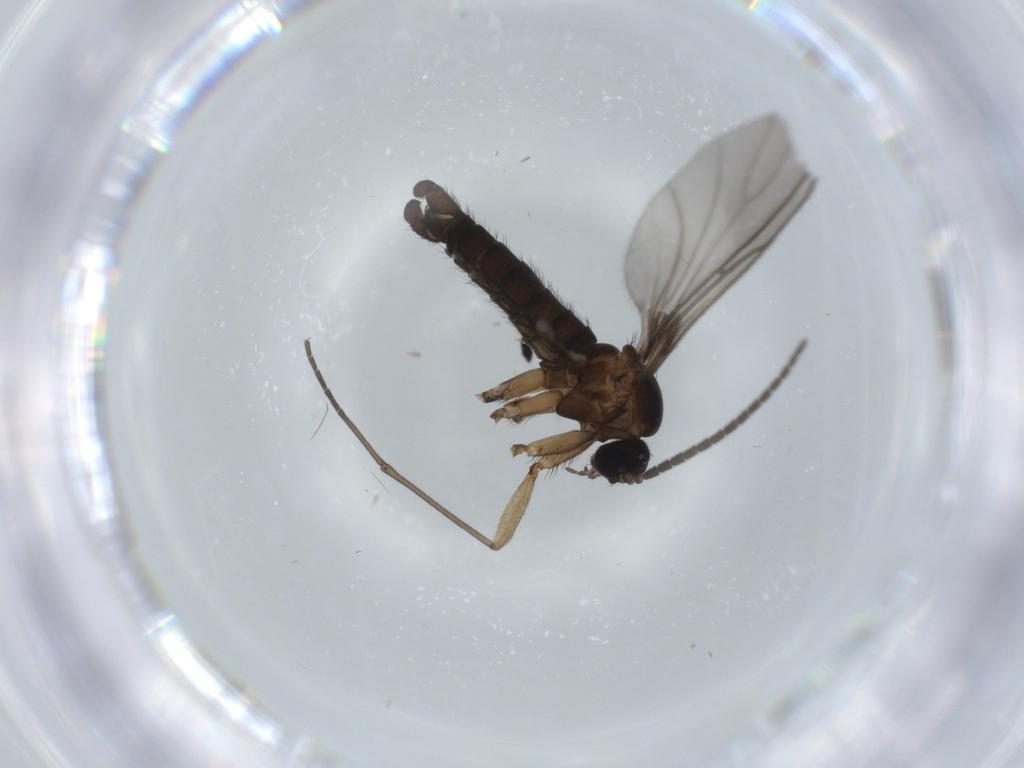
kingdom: Animalia
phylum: Arthropoda
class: Insecta
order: Diptera
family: Sciaridae
